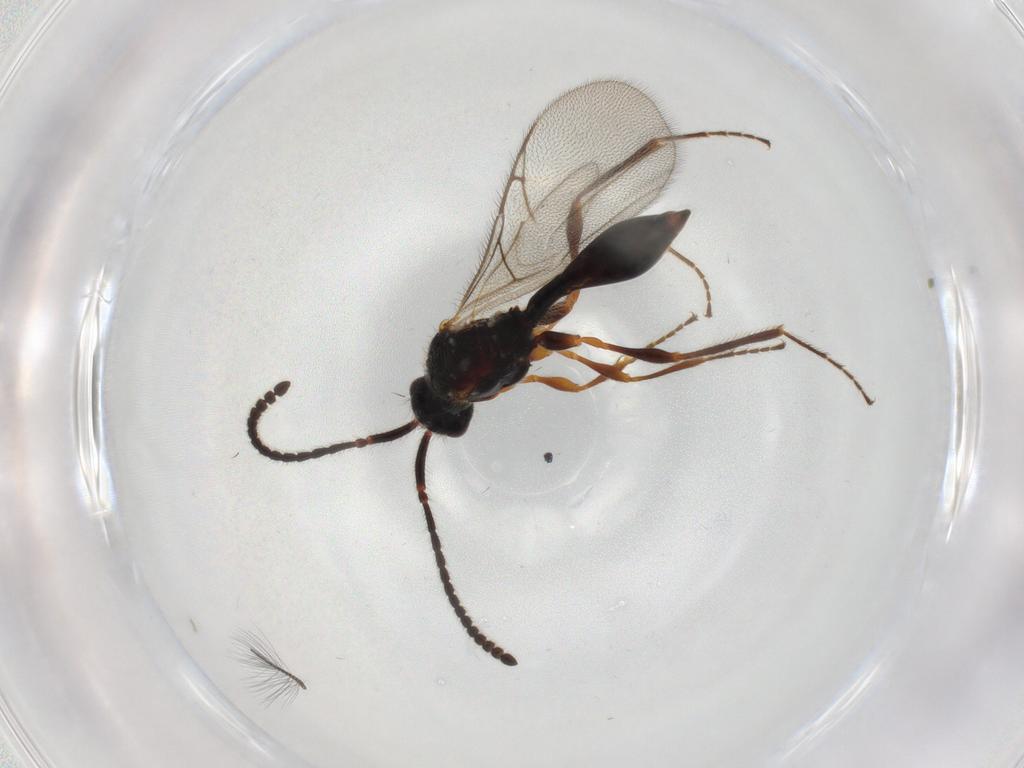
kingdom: Animalia
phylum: Arthropoda
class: Insecta
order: Hymenoptera
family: Diapriidae
